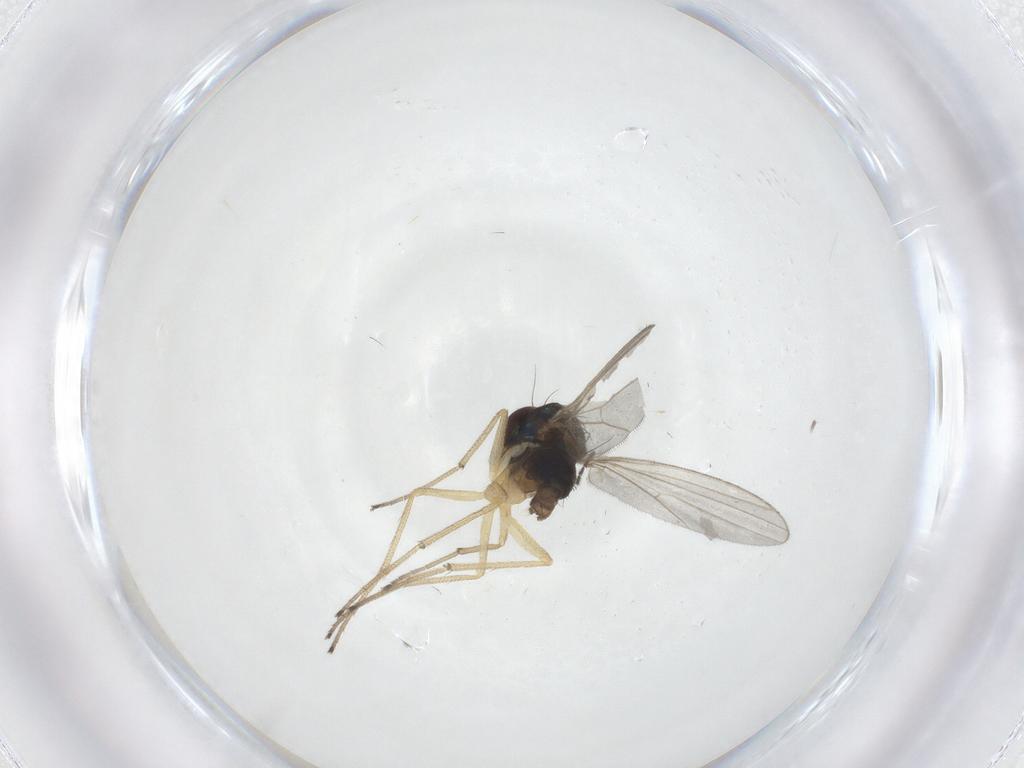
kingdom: Animalia
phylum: Arthropoda
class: Insecta
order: Diptera
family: Dolichopodidae
